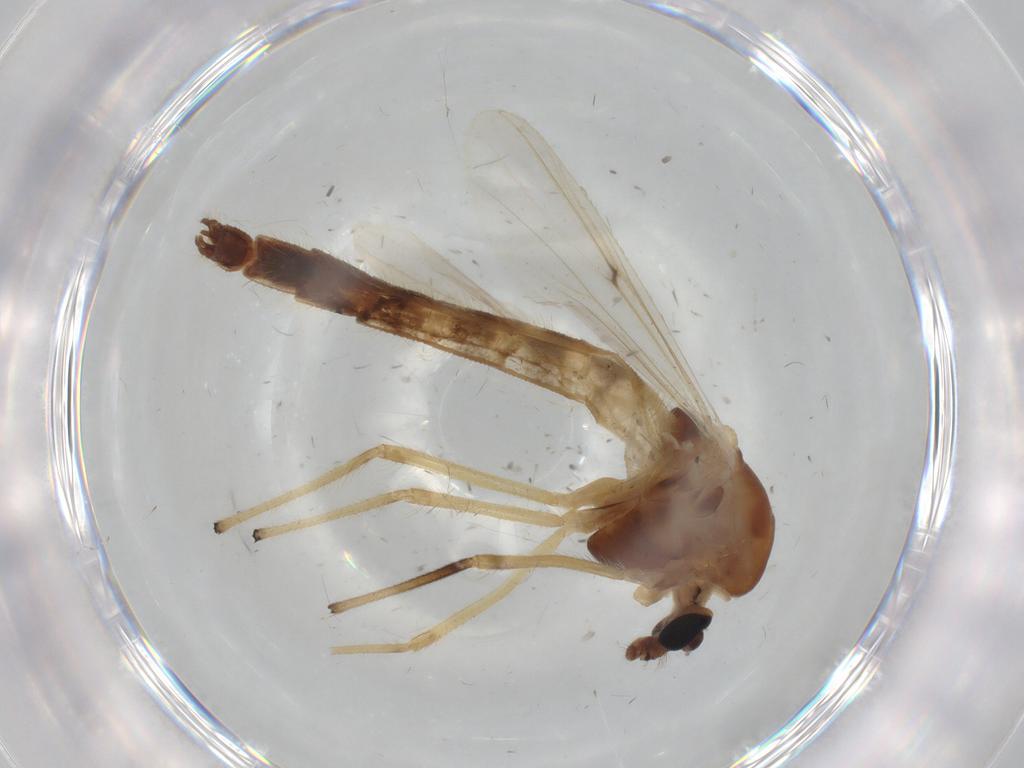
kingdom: Animalia
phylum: Arthropoda
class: Insecta
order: Diptera
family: Chironomidae
